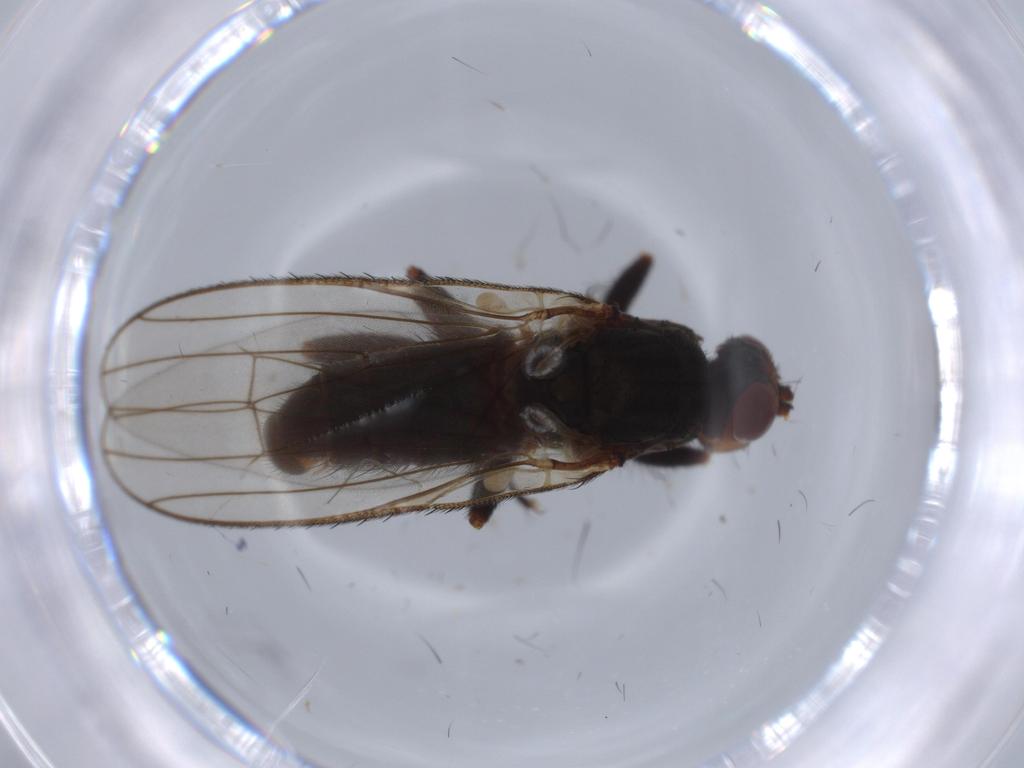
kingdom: Animalia
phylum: Arthropoda
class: Insecta
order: Diptera
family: Heleomyzidae
